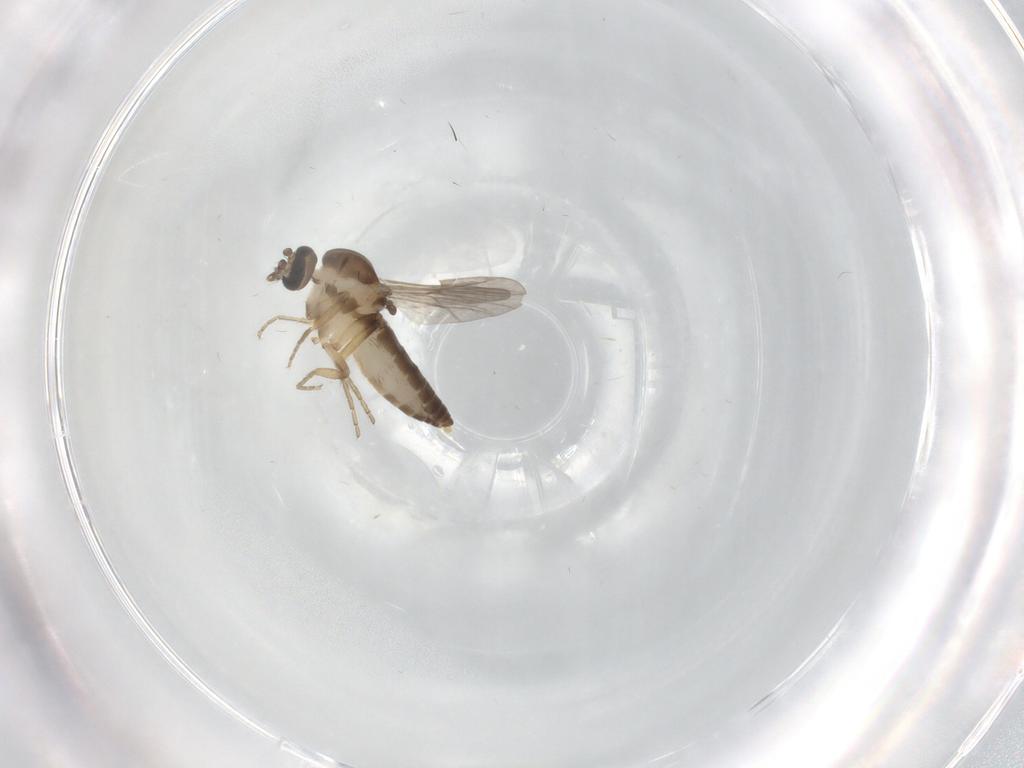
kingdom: Animalia
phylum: Arthropoda
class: Insecta
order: Diptera
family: Ceratopogonidae
